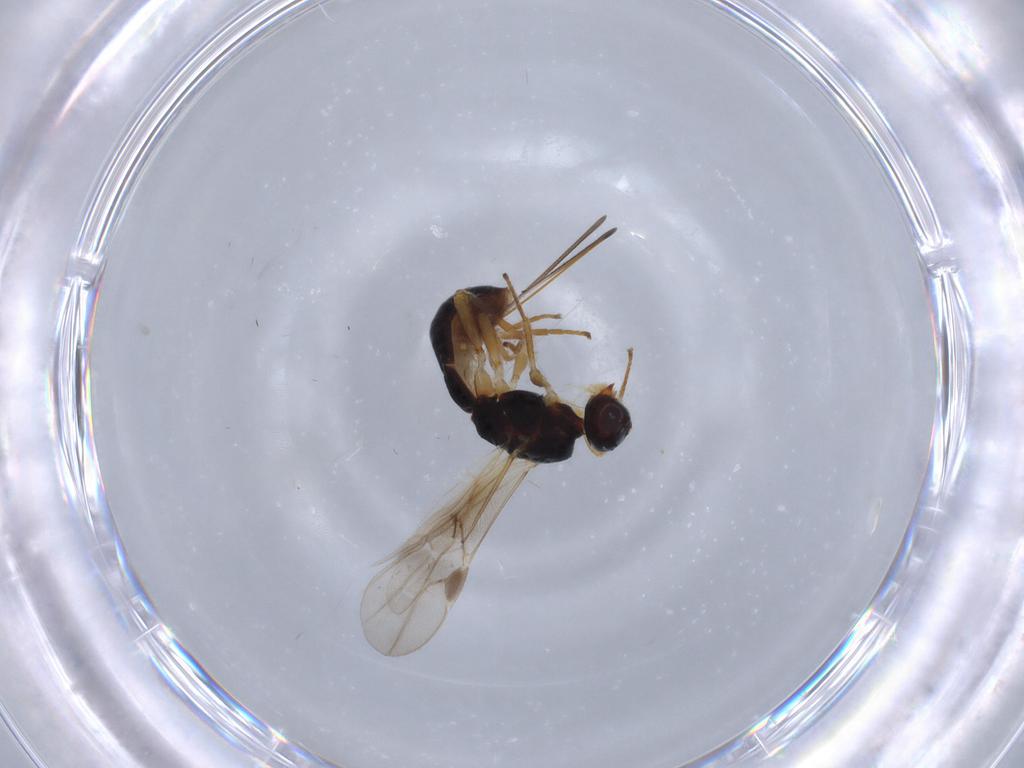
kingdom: Animalia
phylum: Arthropoda
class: Insecta
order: Hymenoptera
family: Braconidae
